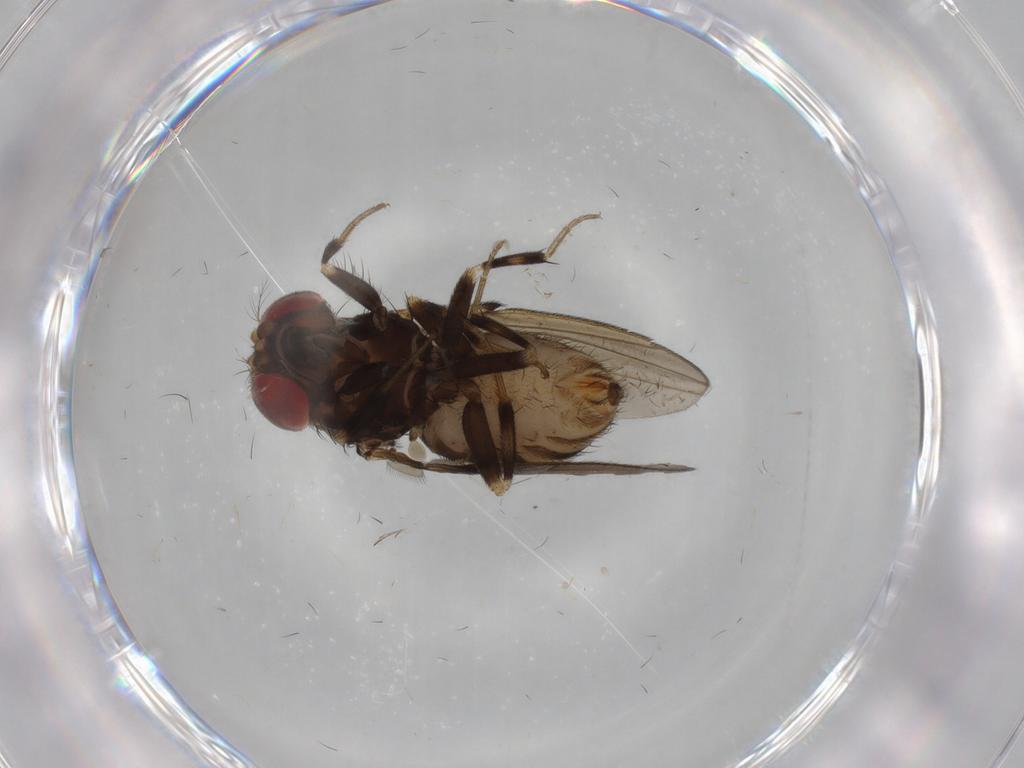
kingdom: Animalia
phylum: Arthropoda
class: Insecta
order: Diptera
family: Drosophilidae
